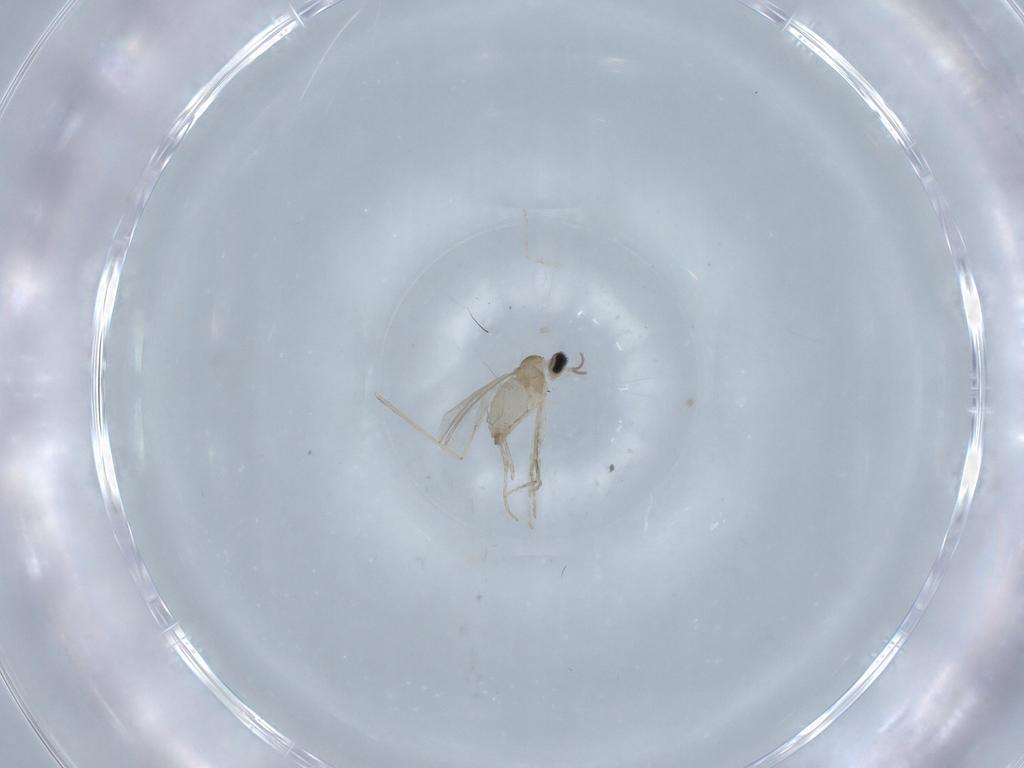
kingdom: Animalia
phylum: Arthropoda
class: Insecta
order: Diptera
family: Cecidomyiidae
